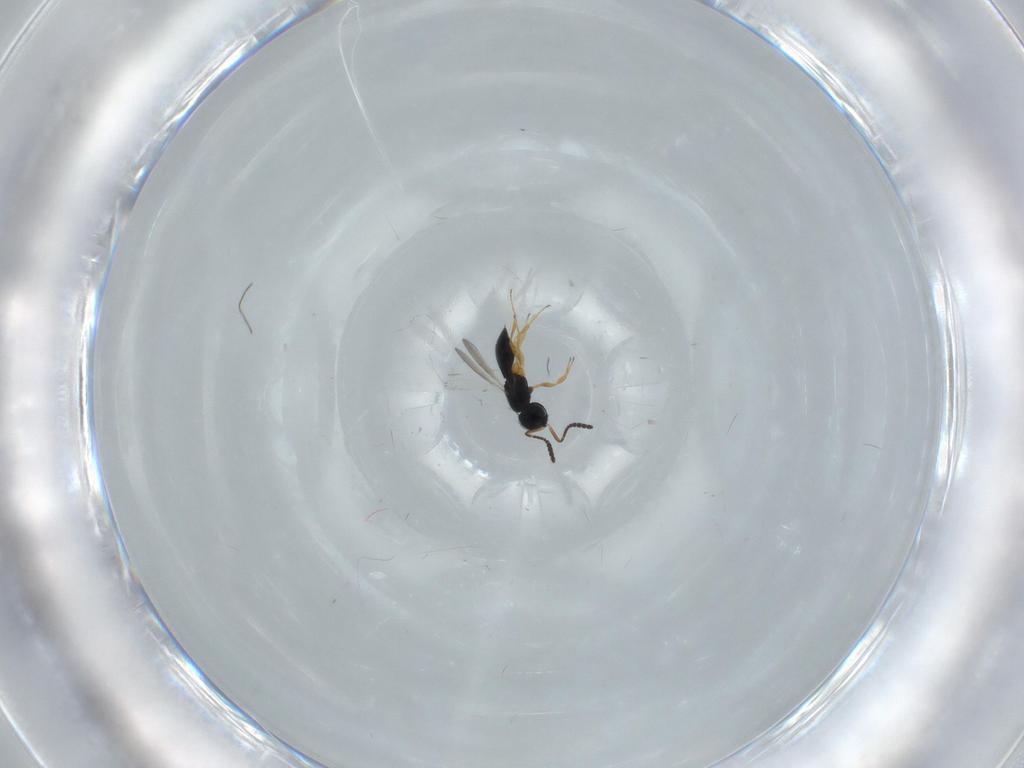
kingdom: Animalia
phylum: Arthropoda
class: Insecta
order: Hymenoptera
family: Scelionidae
